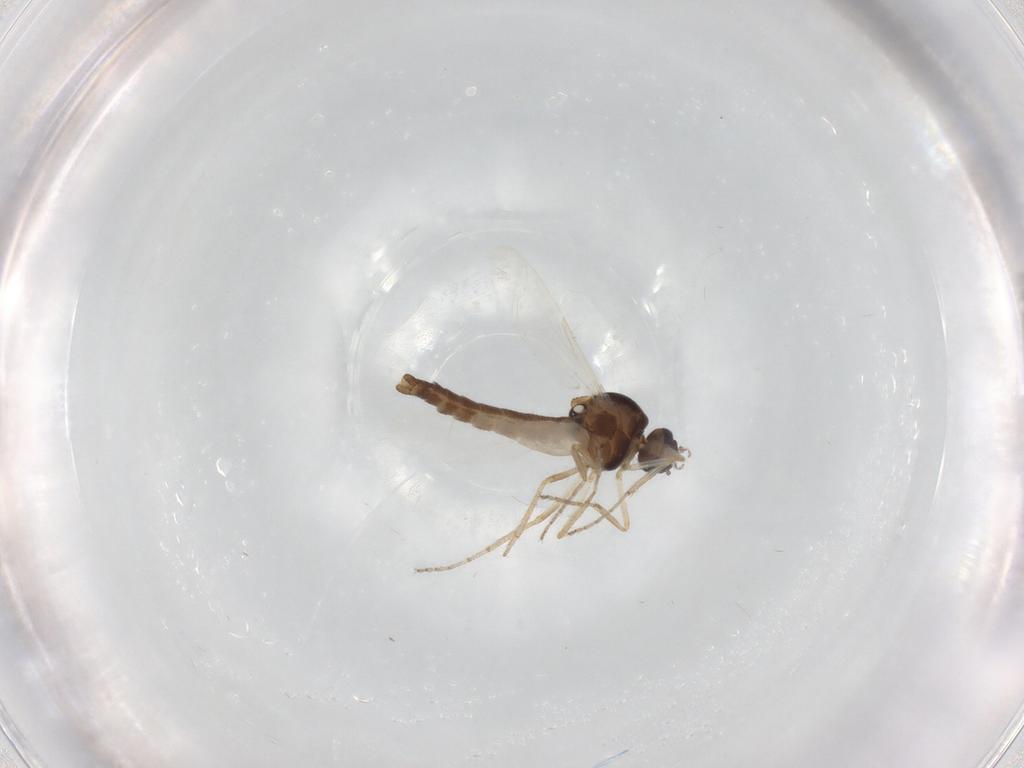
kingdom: Animalia
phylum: Arthropoda
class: Insecta
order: Diptera
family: Ceratopogonidae
